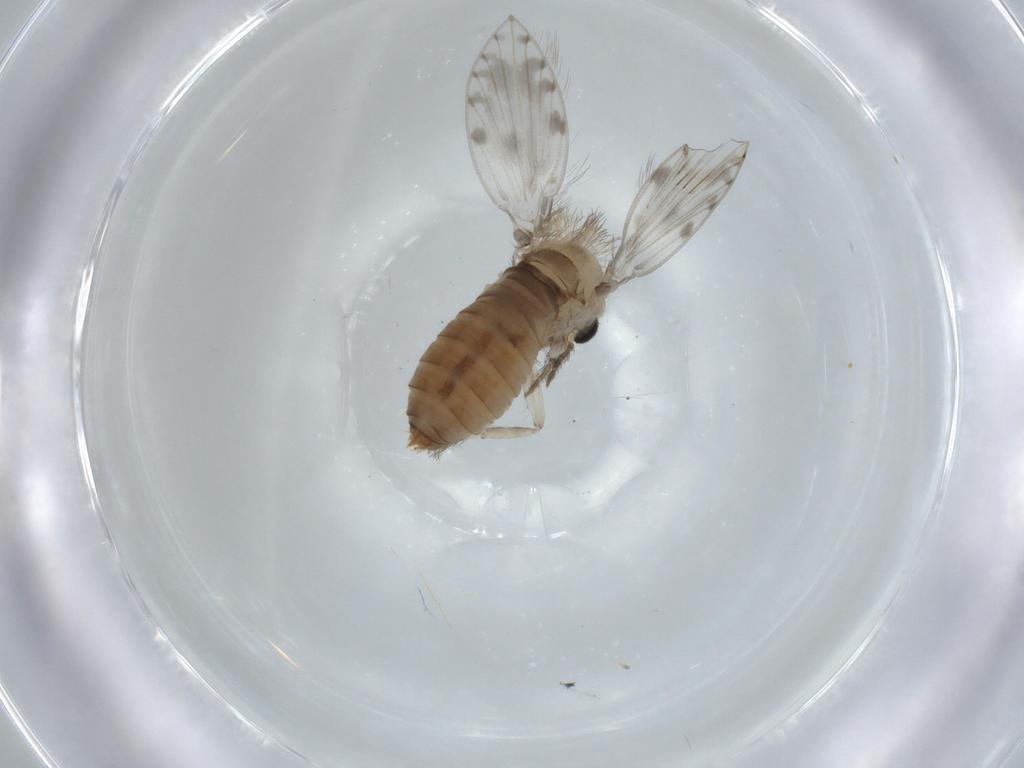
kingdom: Animalia
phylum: Arthropoda
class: Insecta
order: Diptera
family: Psychodidae
